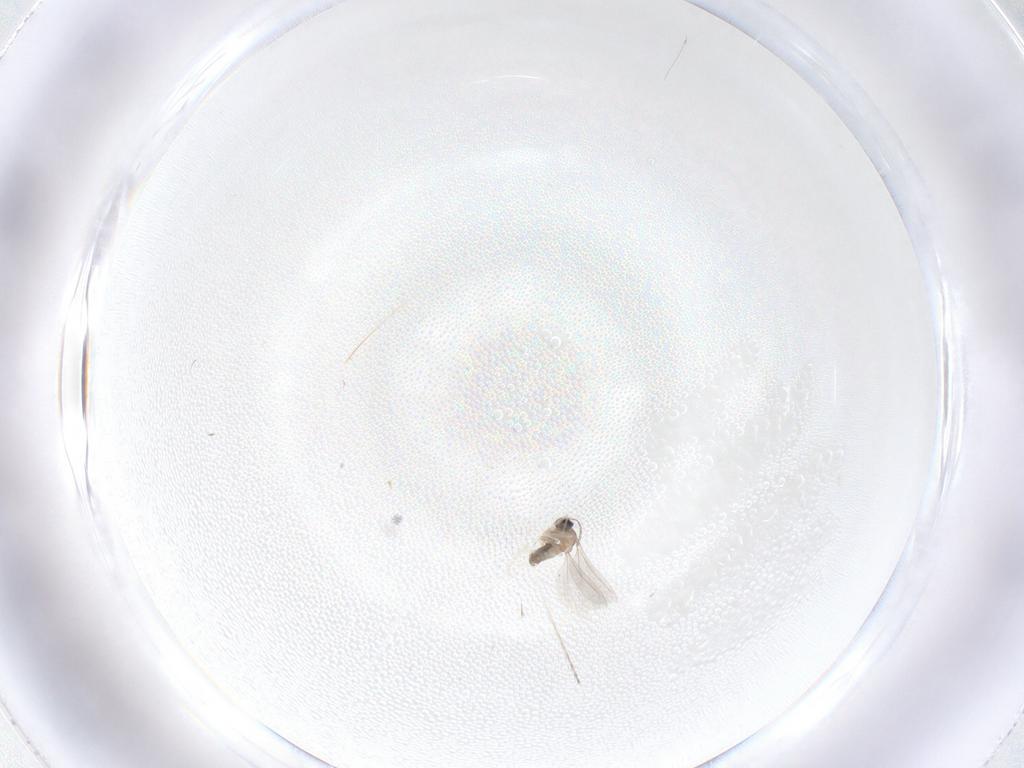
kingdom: Animalia
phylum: Arthropoda
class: Insecta
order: Diptera
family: Cecidomyiidae
